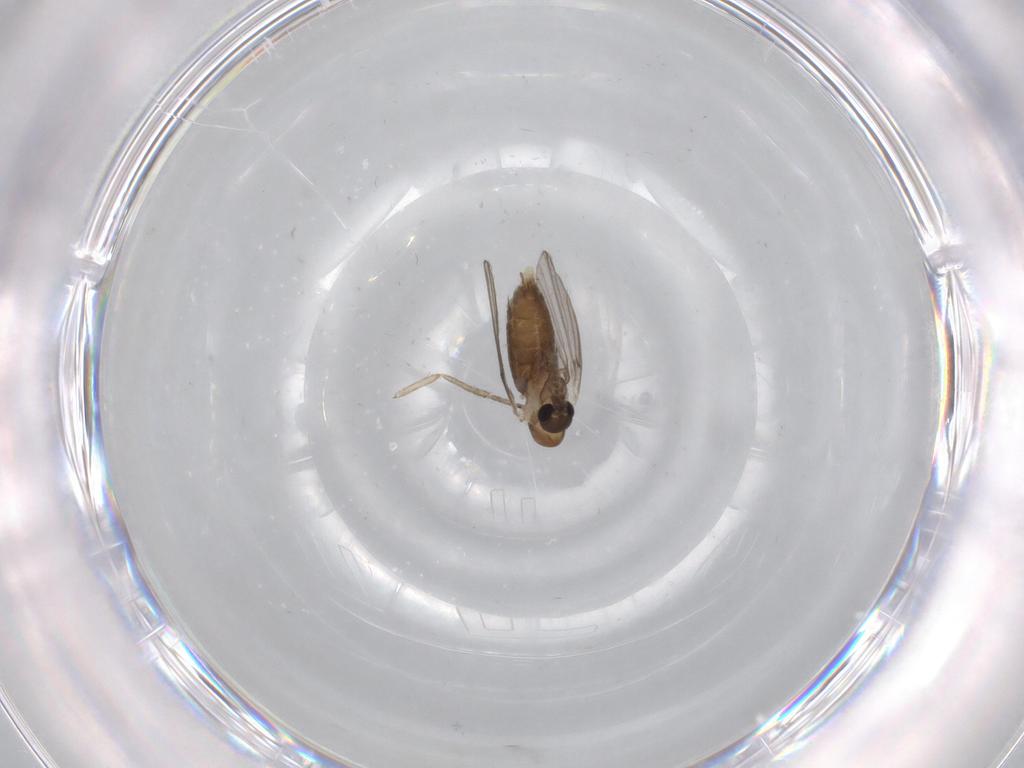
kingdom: Animalia
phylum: Arthropoda
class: Insecta
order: Diptera
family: Psychodidae
